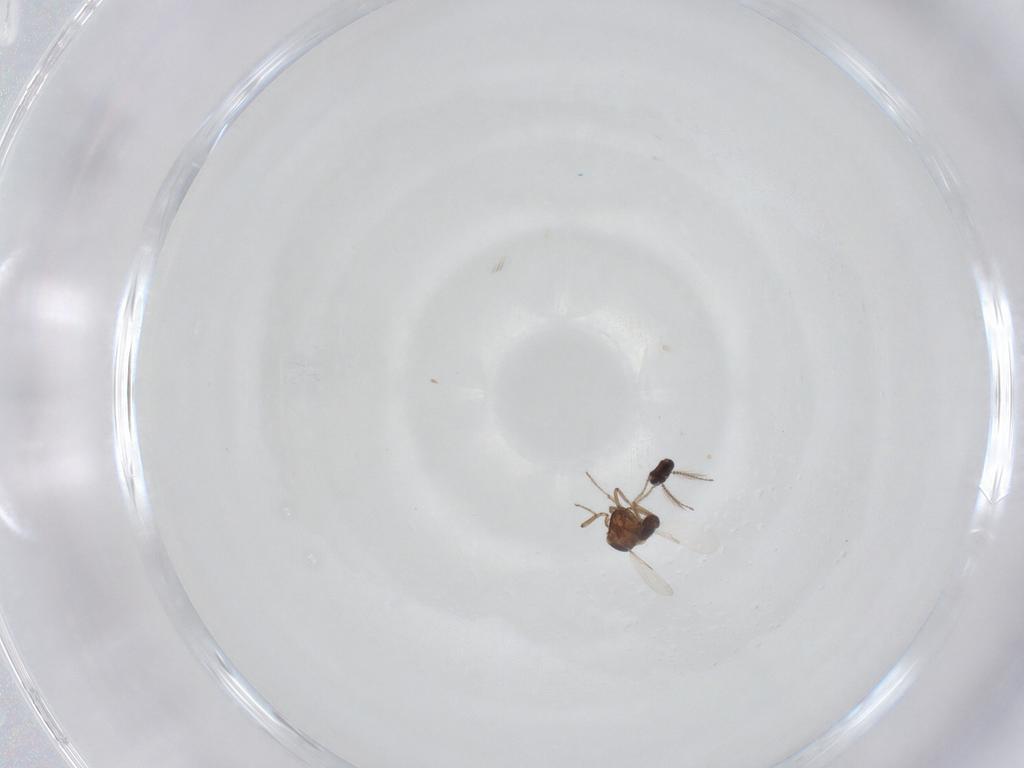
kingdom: Animalia
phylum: Arthropoda
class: Insecta
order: Diptera
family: Ceratopogonidae
